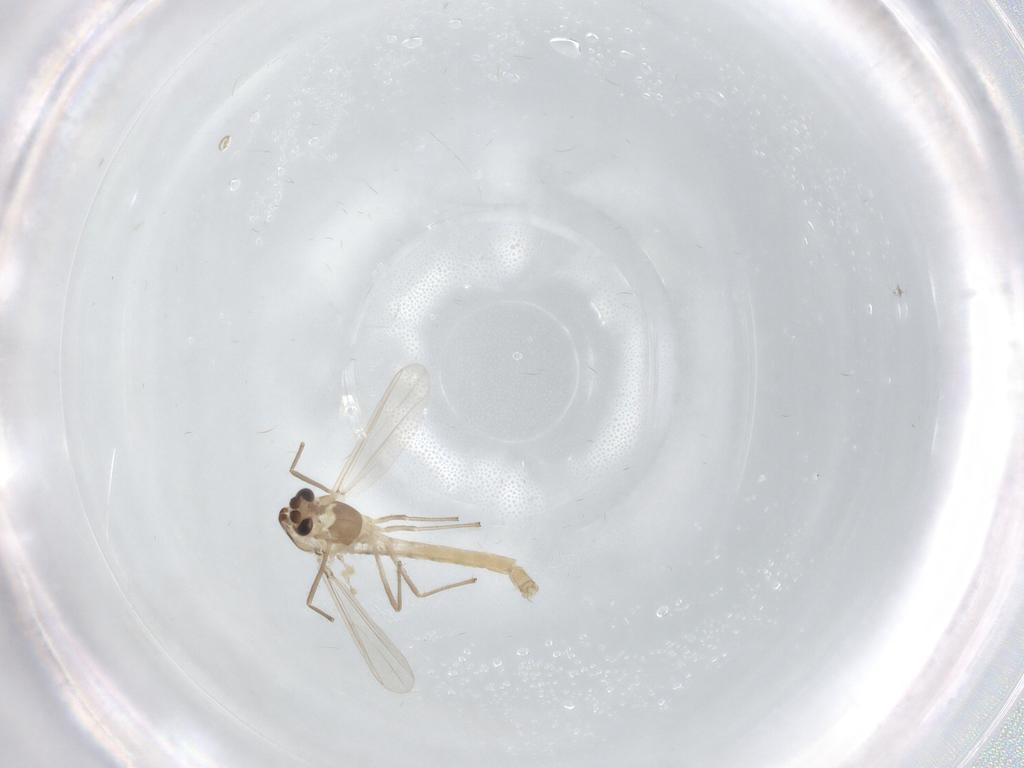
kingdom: Animalia
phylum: Arthropoda
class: Insecta
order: Diptera
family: Chironomidae
